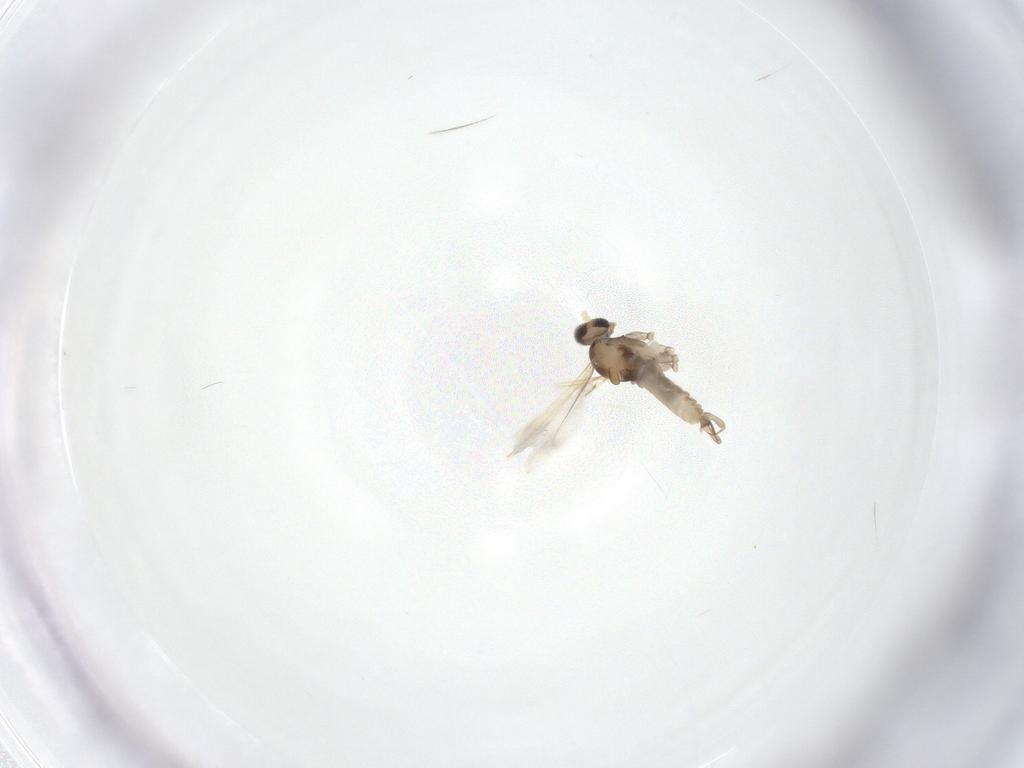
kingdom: Animalia
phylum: Arthropoda
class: Insecta
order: Diptera
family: Cecidomyiidae
